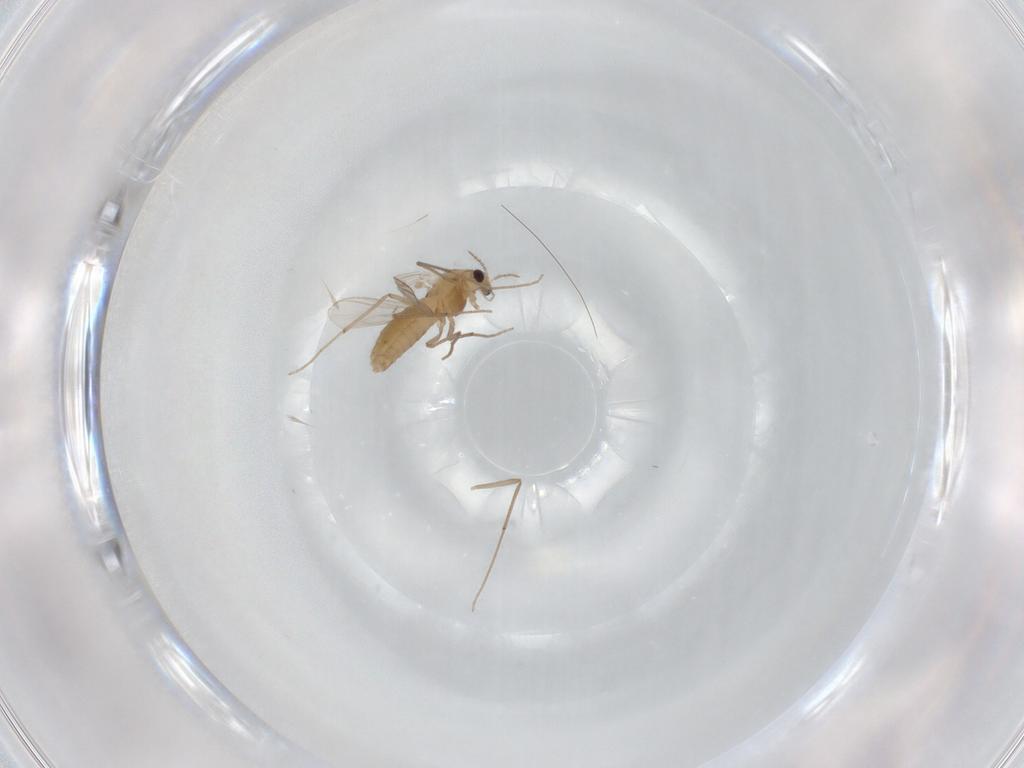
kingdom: Animalia
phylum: Arthropoda
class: Insecta
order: Diptera
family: Chironomidae
